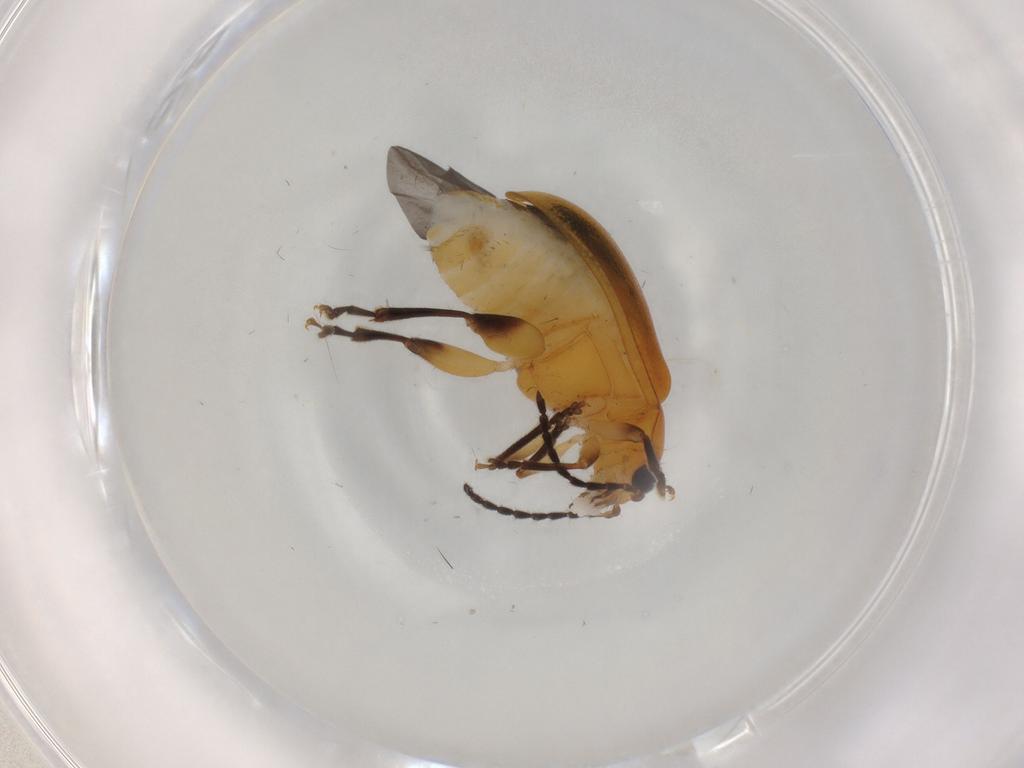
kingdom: Animalia
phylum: Arthropoda
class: Insecta
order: Coleoptera
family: Chrysomelidae
